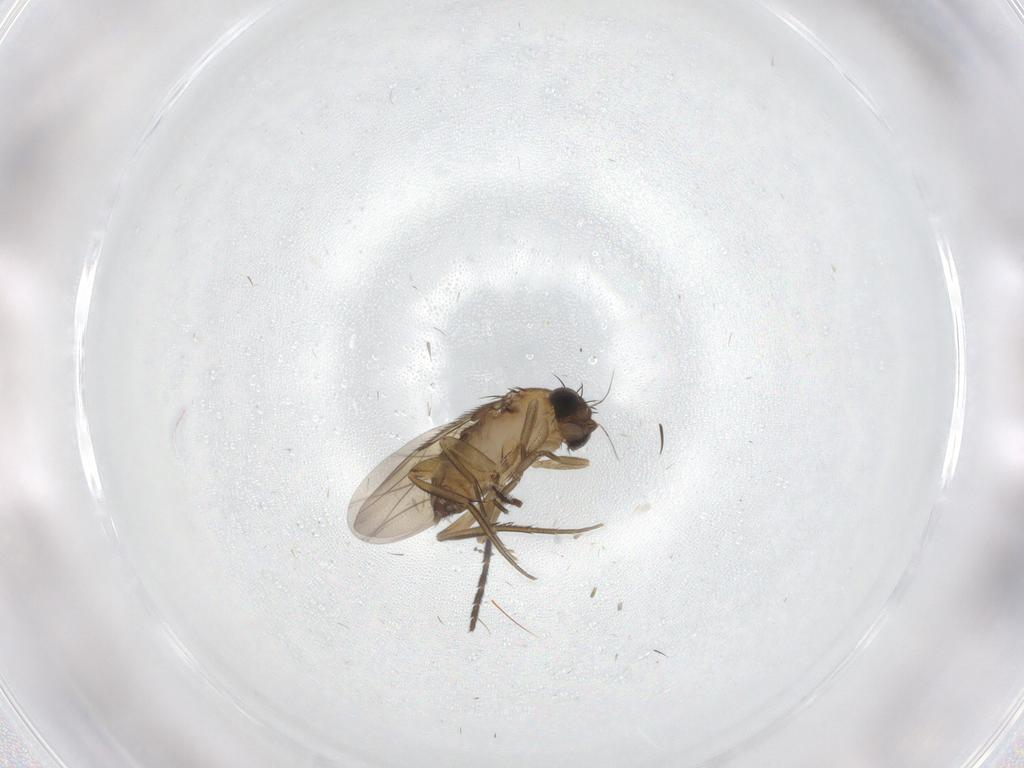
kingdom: Animalia
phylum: Arthropoda
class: Insecta
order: Diptera
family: Phoridae
